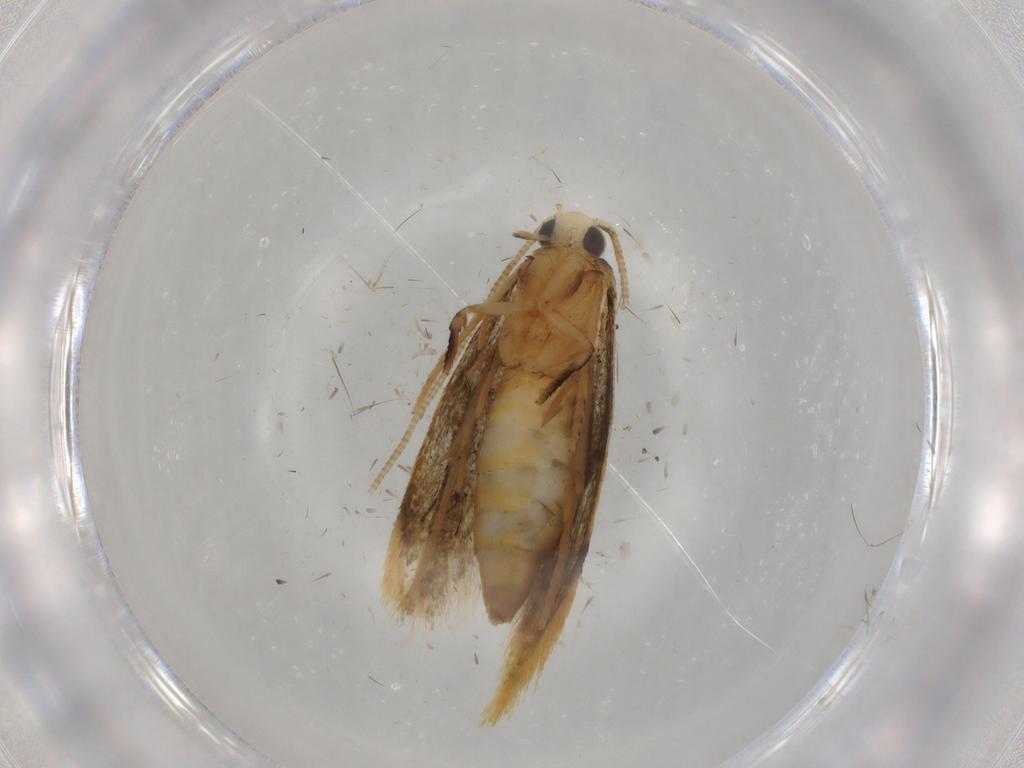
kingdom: Animalia
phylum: Arthropoda
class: Insecta
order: Lepidoptera
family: Tineidae
